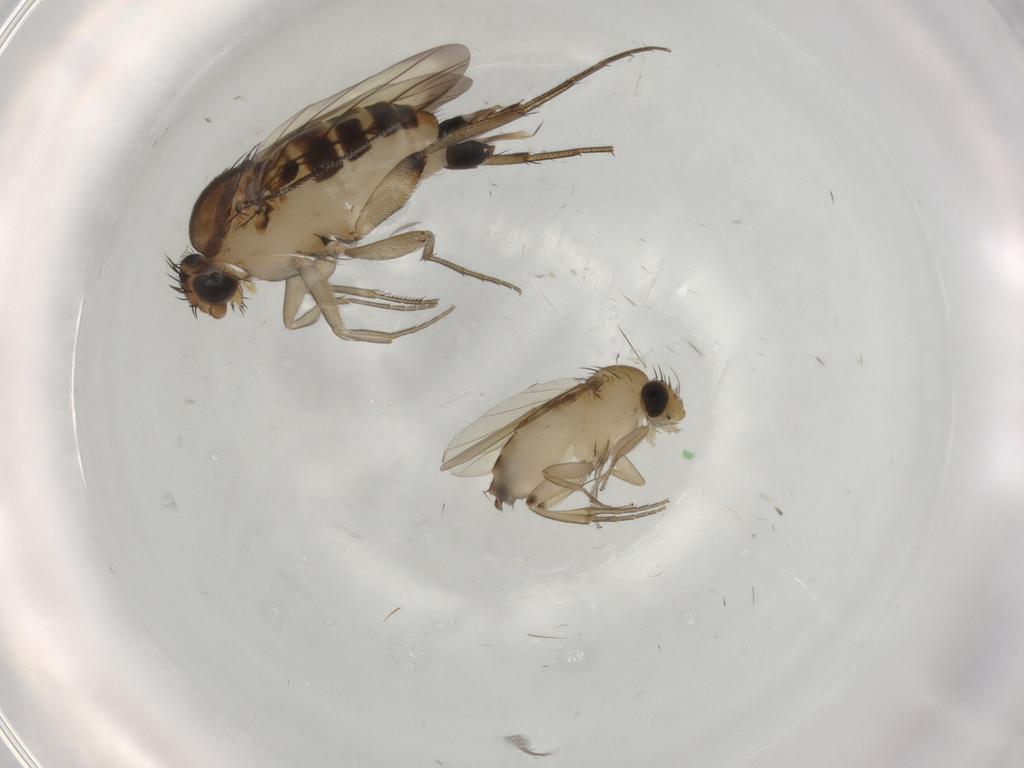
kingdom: Animalia
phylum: Arthropoda
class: Insecta
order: Diptera
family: Phoridae
